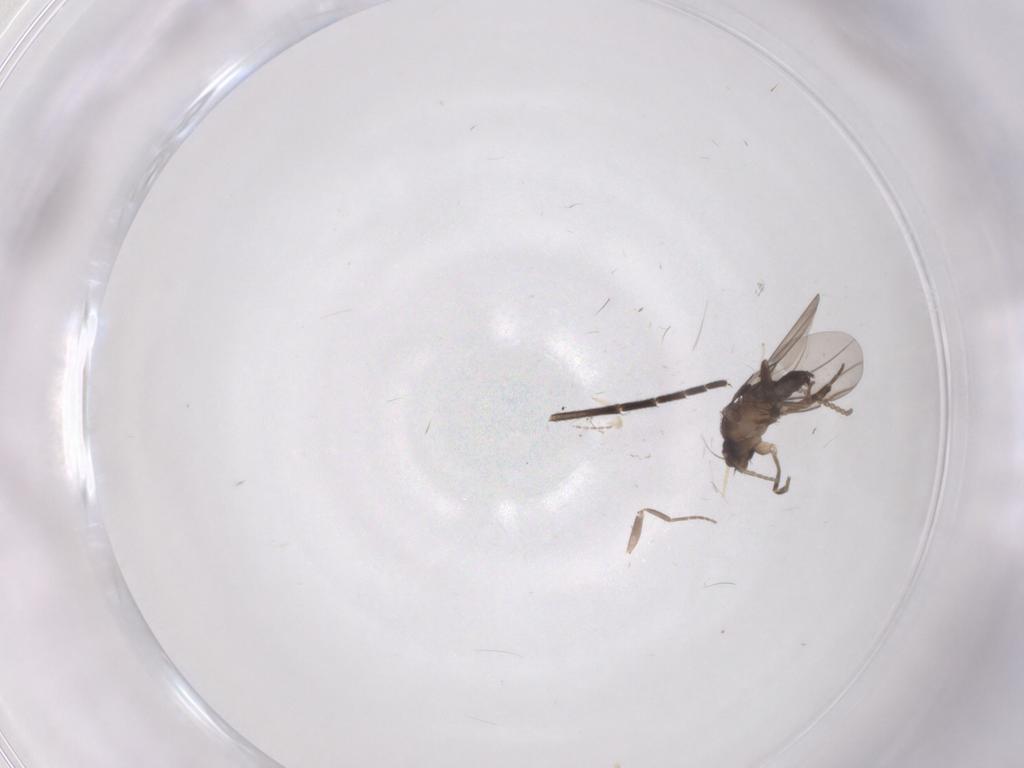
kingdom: Animalia
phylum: Arthropoda
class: Insecta
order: Diptera
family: Cecidomyiidae
